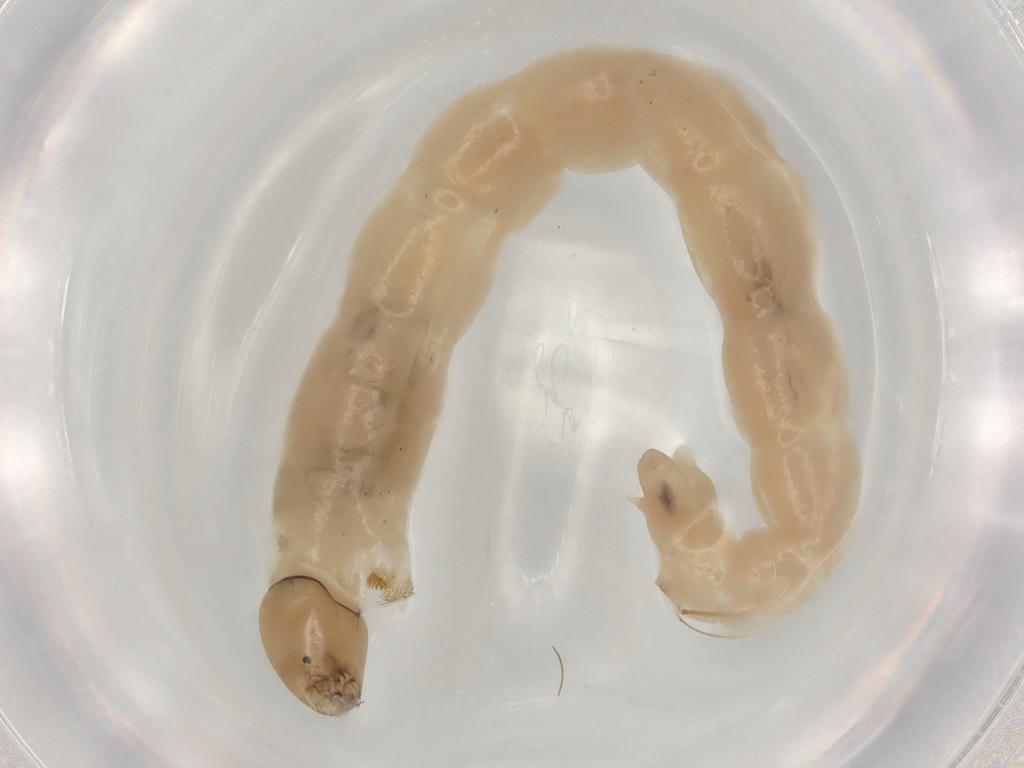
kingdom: Animalia
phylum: Arthropoda
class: Insecta
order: Diptera
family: Chironomidae
